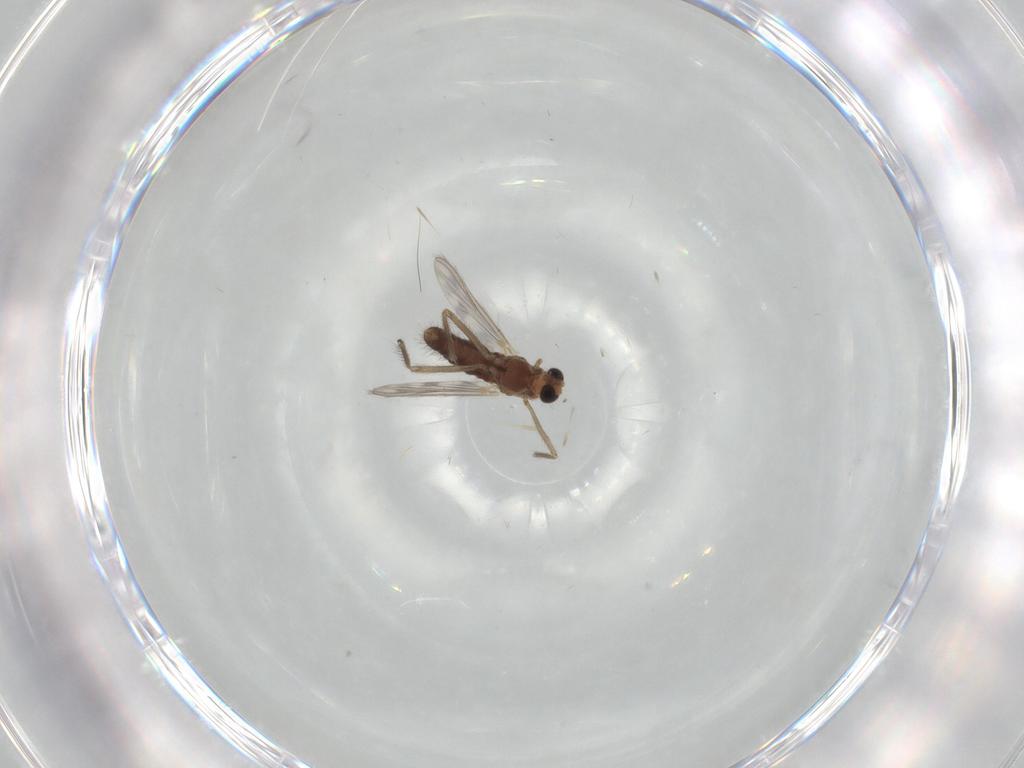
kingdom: Animalia
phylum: Arthropoda
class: Insecta
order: Diptera
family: Chironomidae
